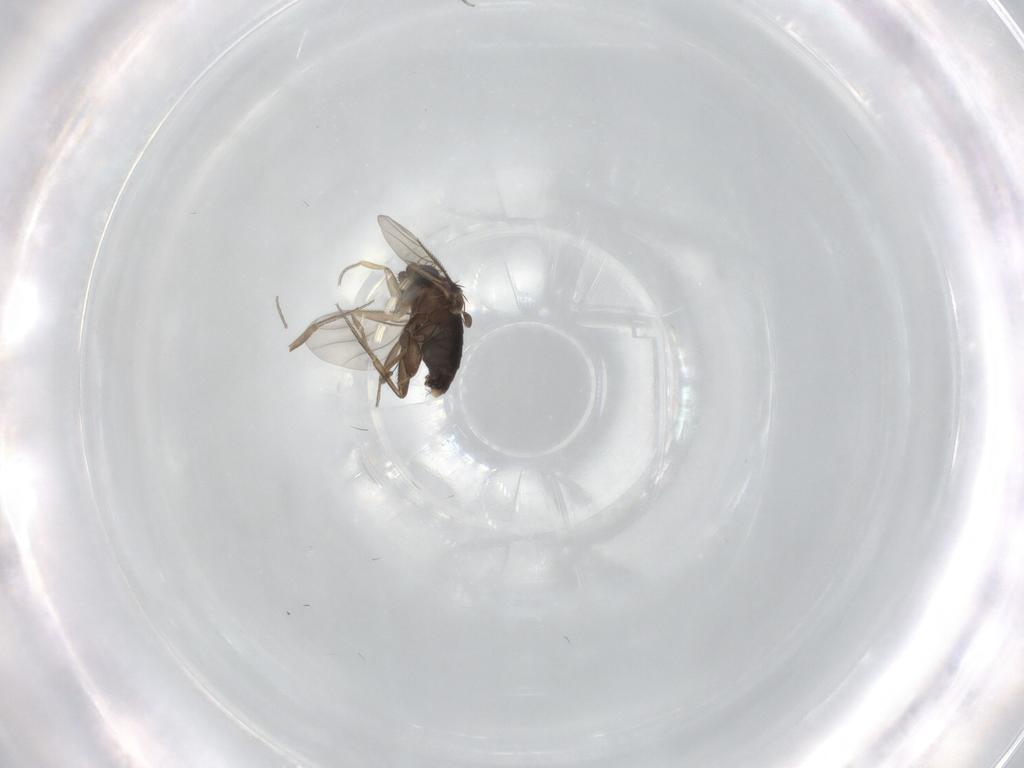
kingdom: Animalia
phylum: Arthropoda
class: Insecta
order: Diptera
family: Phoridae
